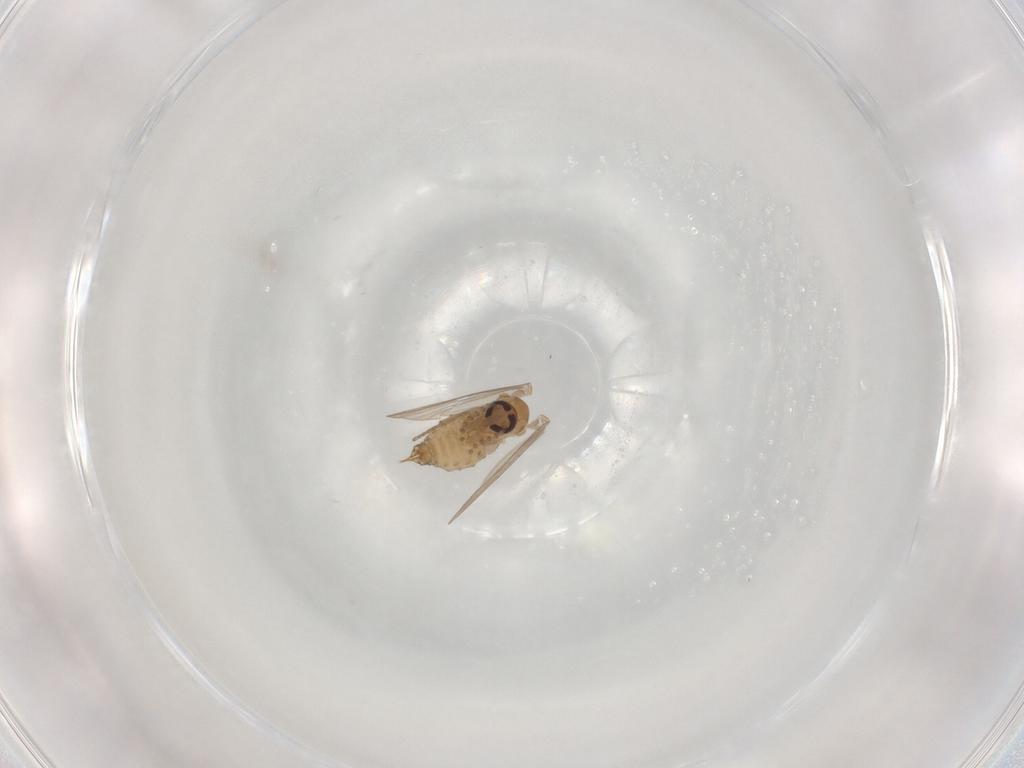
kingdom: Animalia
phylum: Arthropoda
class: Insecta
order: Diptera
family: Psychodidae
